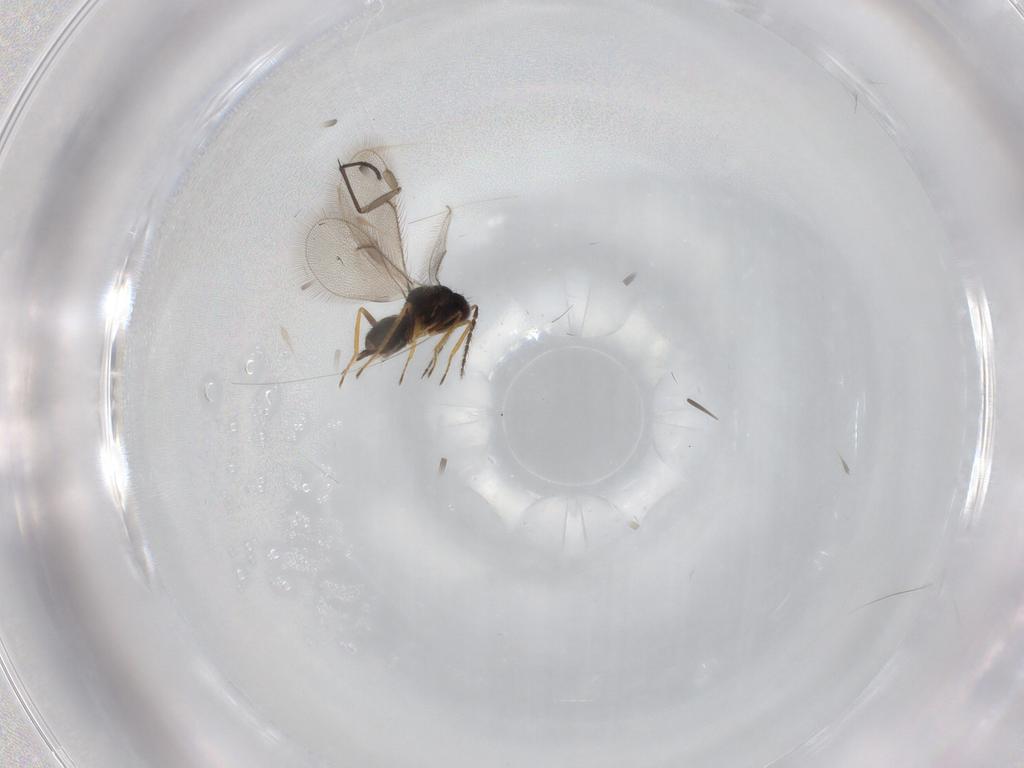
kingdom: Animalia
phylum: Arthropoda
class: Insecta
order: Hymenoptera
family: Eulophidae
